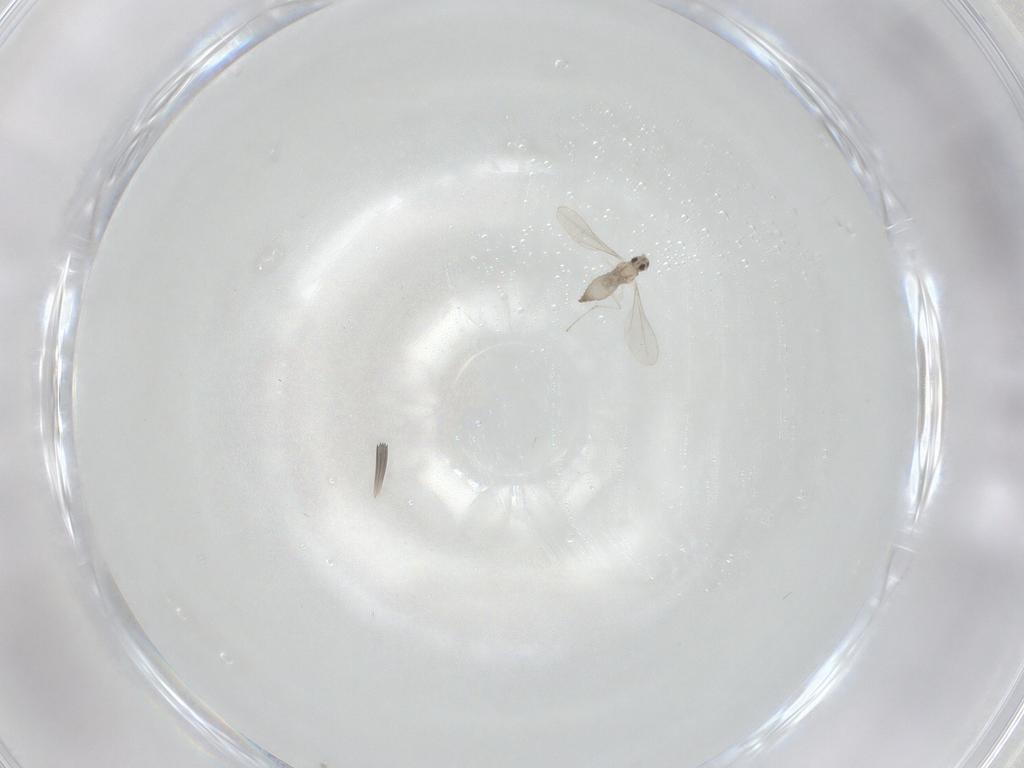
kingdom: Animalia
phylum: Arthropoda
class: Insecta
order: Diptera
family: Cecidomyiidae
